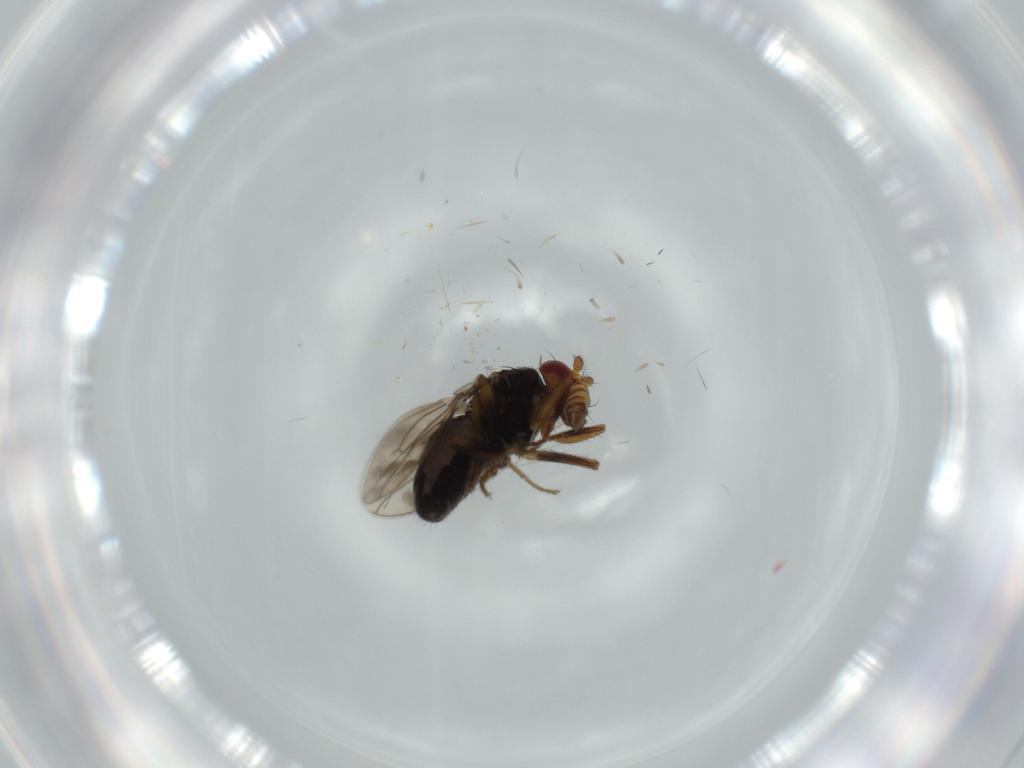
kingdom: Animalia
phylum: Arthropoda
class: Insecta
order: Diptera
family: Sphaeroceridae
